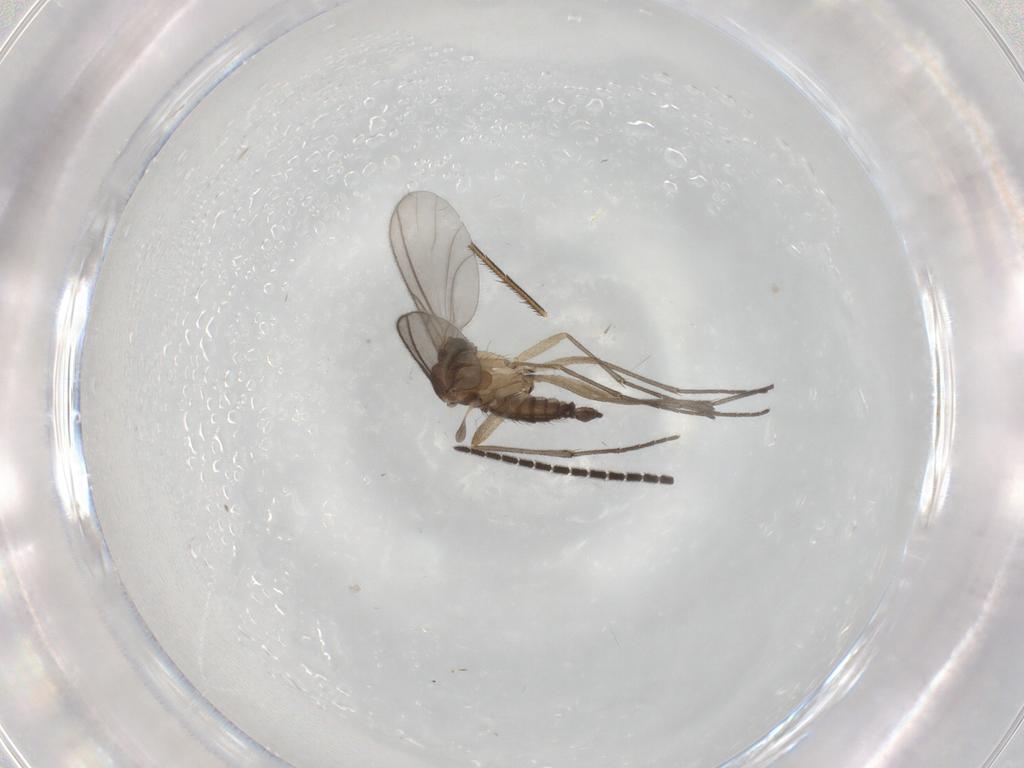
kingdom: Animalia
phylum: Arthropoda
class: Insecta
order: Diptera
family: Sciaridae
